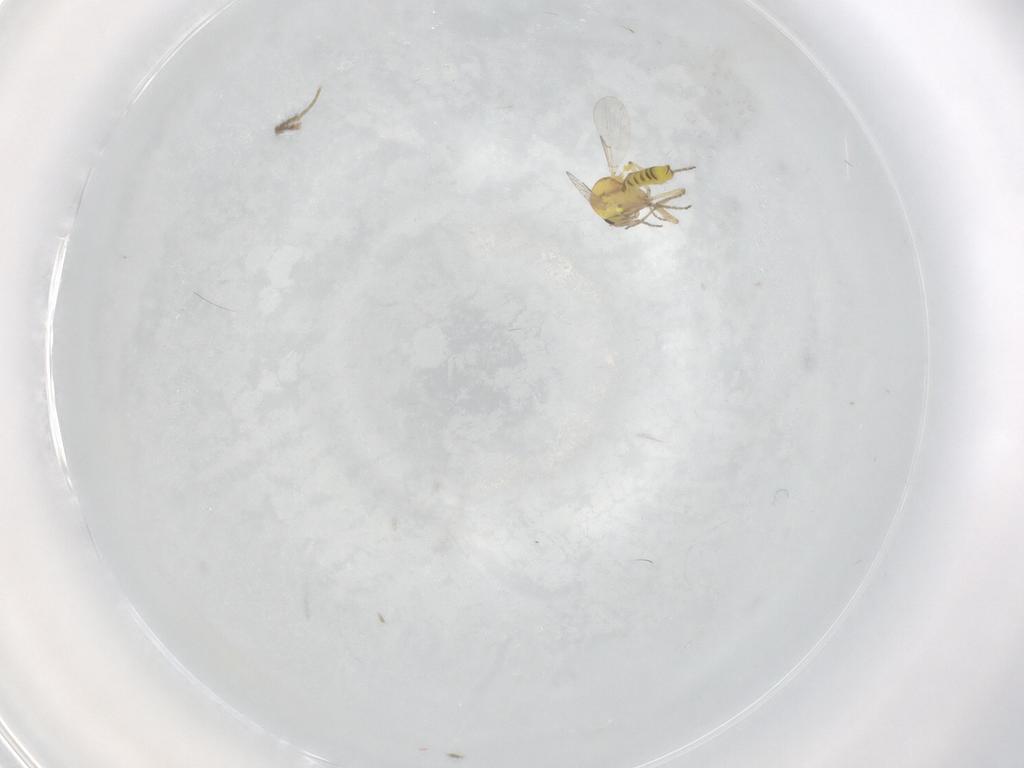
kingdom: Animalia
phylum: Arthropoda
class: Insecta
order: Diptera
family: Ceratopogonidae
